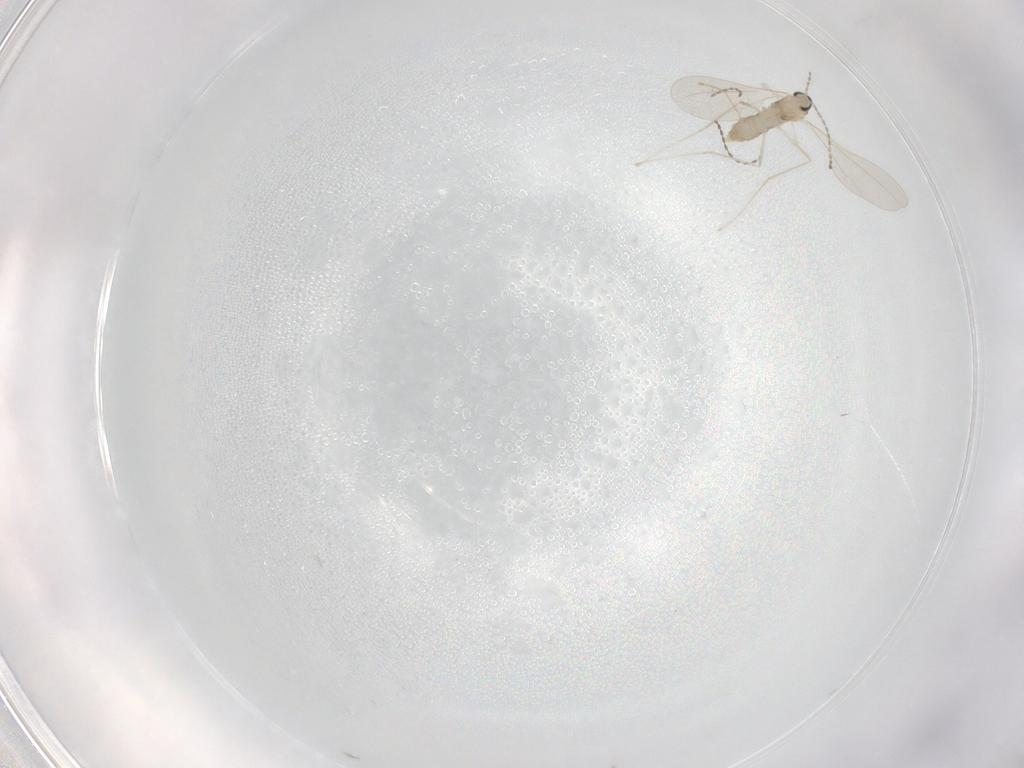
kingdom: Animalia
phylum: Arthropoda
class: Insecta
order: Diptera
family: Cecidomyiidae
